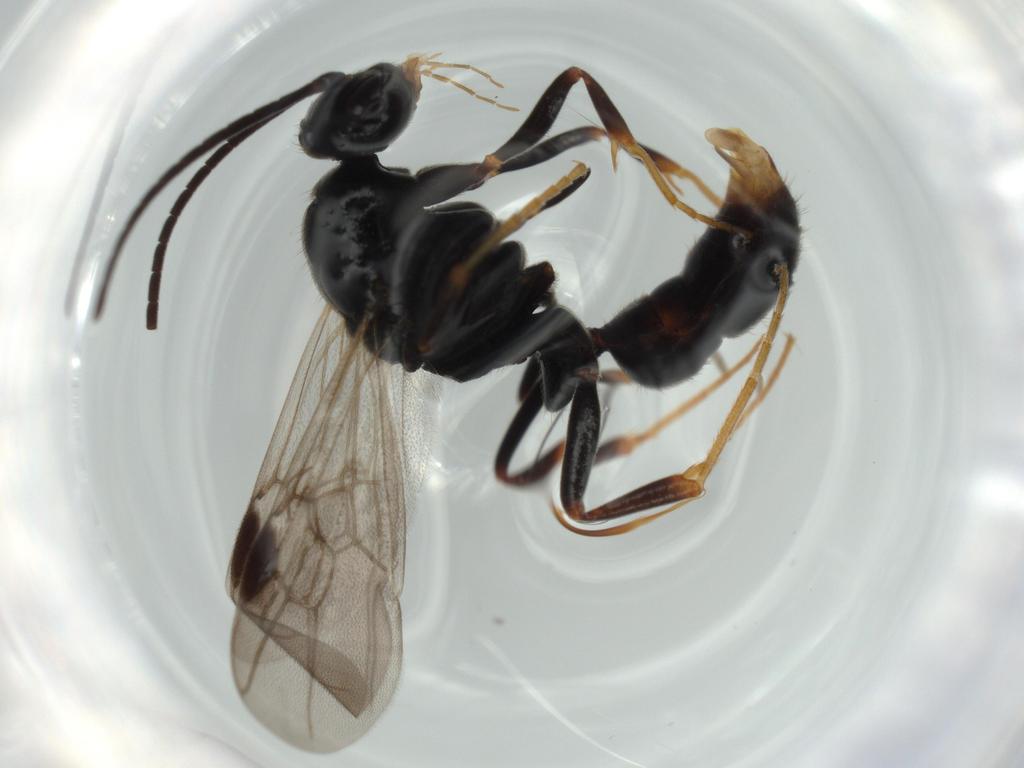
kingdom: Animalia
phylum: Arthropoda
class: Insecta
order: Hymenoptera
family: Formicidae
